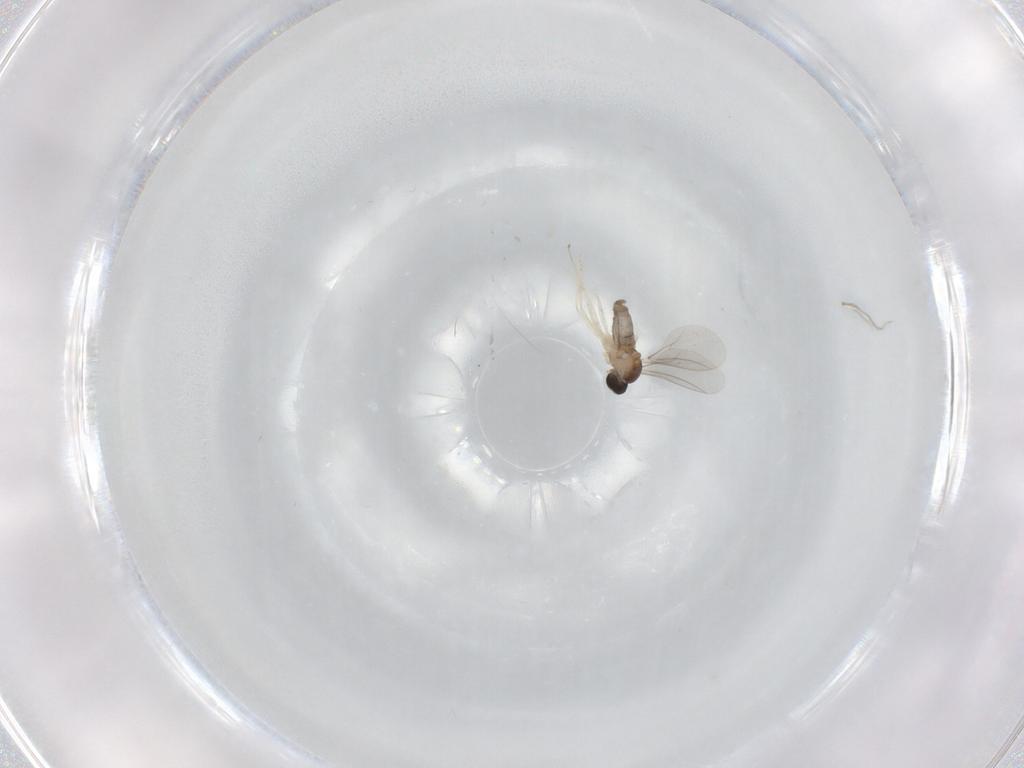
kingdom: Animalia
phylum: Arthropoda
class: Insecta
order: Diptera
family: Cecidomyiidae
